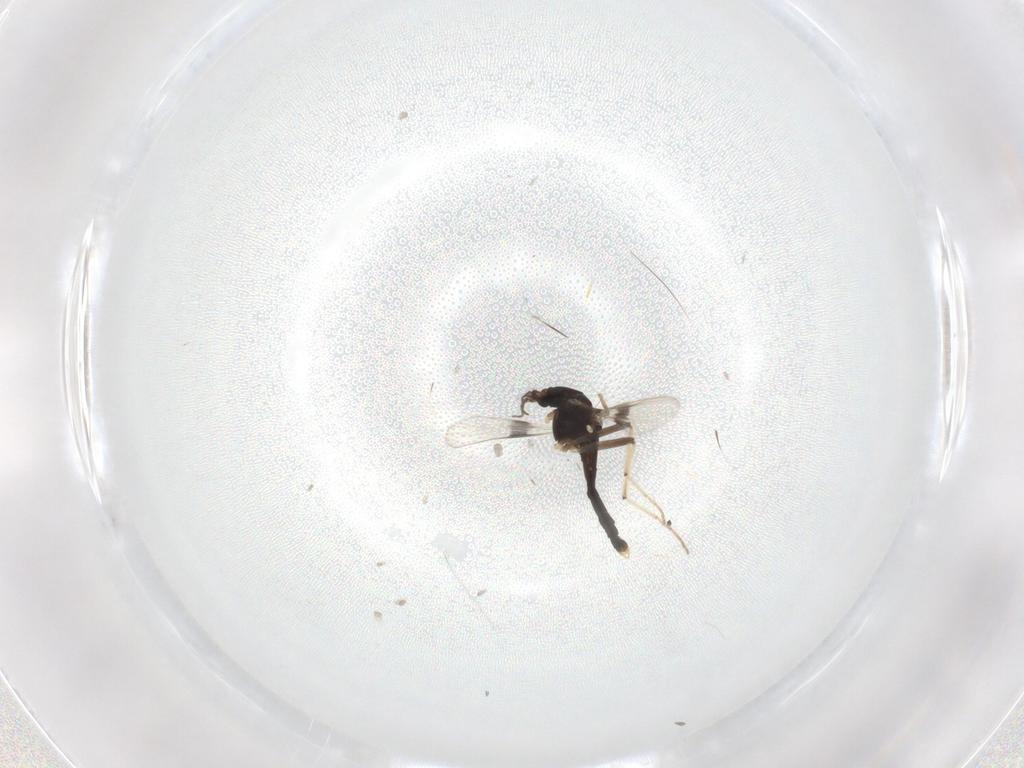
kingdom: Animalia
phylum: Arthropoda
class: Insecta
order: Diptera
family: Chironomidae
